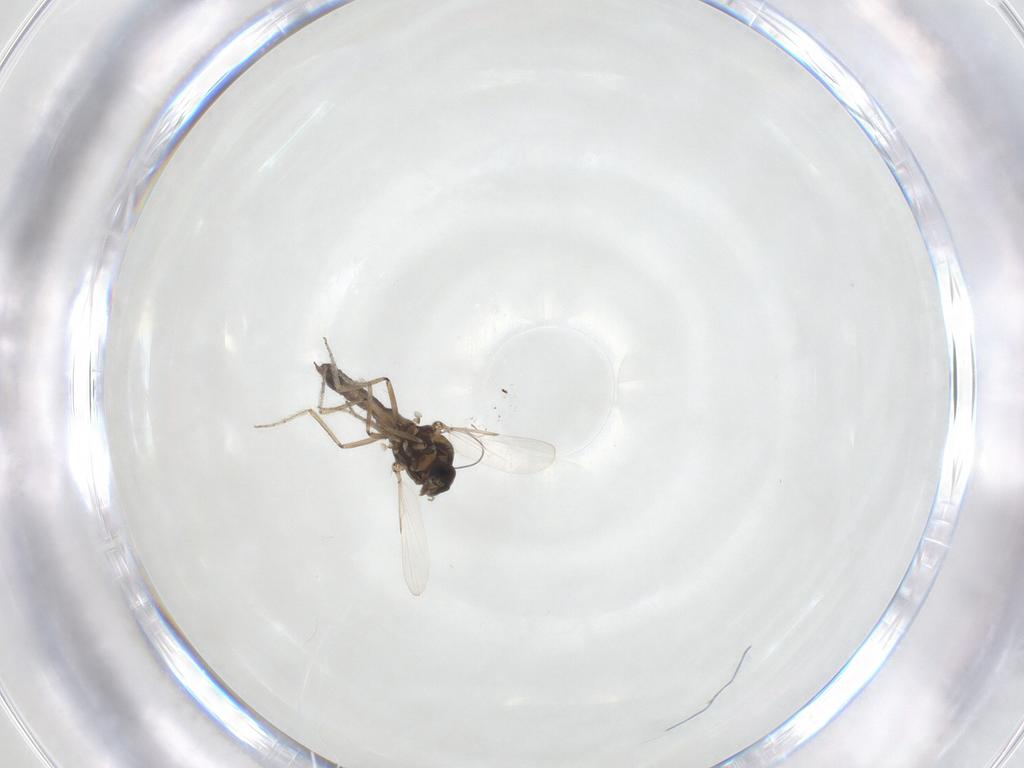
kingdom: Animalia
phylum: Arthropoda
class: Insecta
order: Diptera
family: Ceratopogonidae
